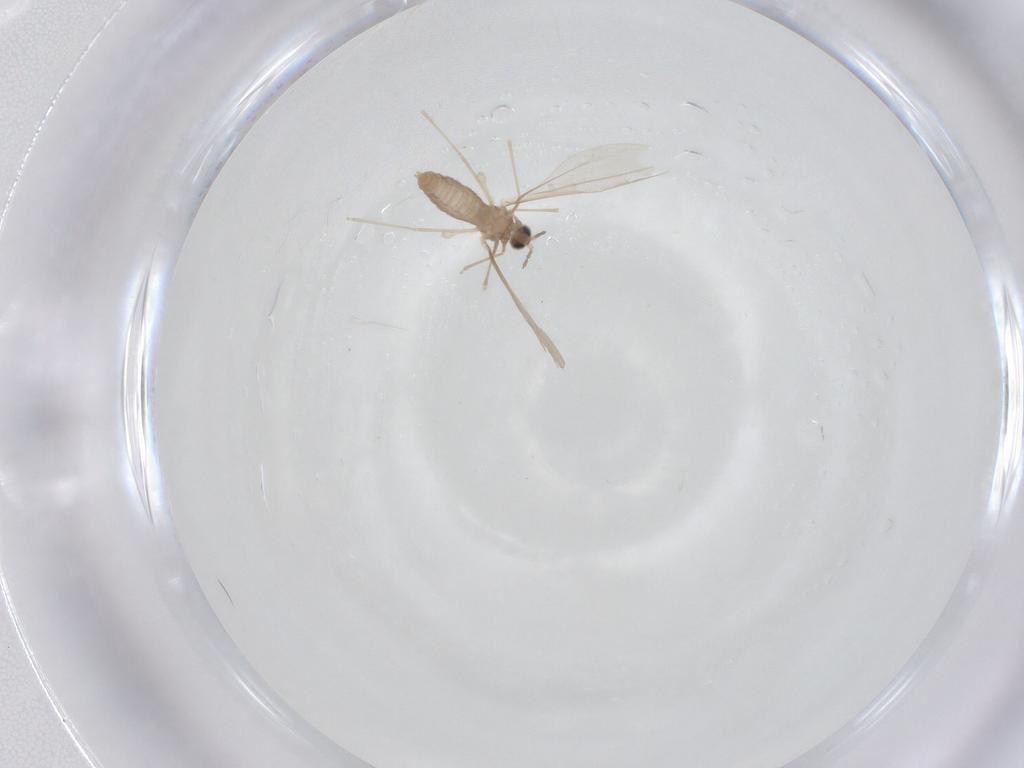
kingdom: Animalia
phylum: Arthropoda
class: Insecta
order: Diptera
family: Cecidomyiidae
